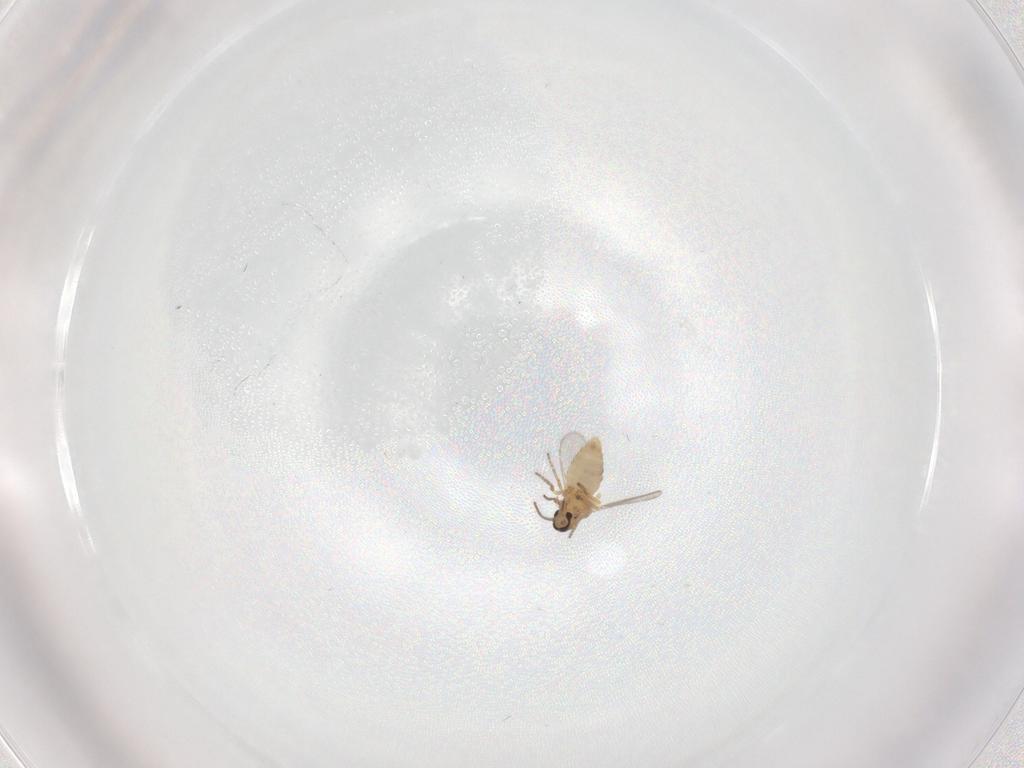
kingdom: Animalia
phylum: Arthropoda
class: Insecta
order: Diptera
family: Ceratopogonidae
